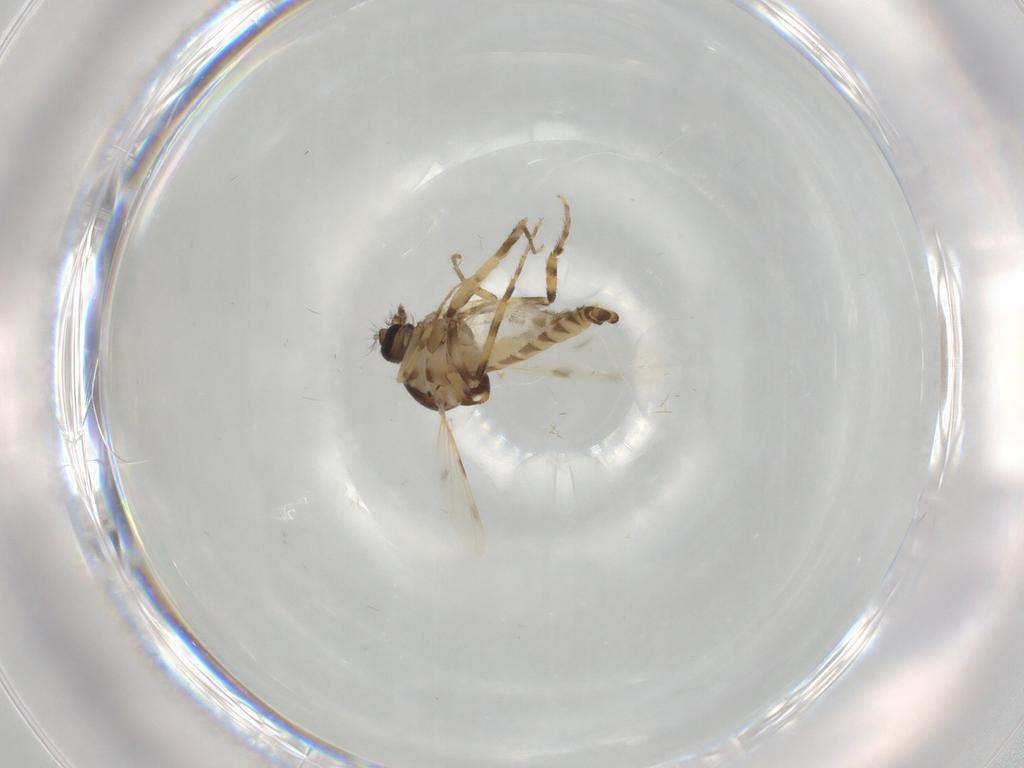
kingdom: Animalia
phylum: Arthropoda
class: Insecta
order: Diptera
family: Ceratopogonidae
